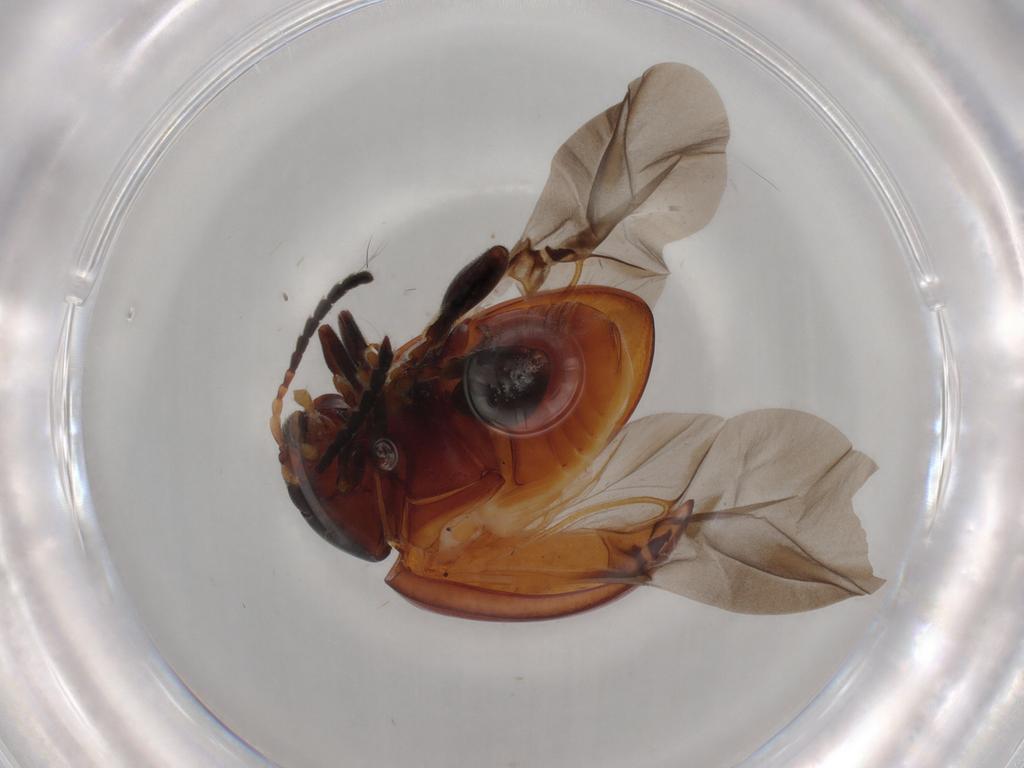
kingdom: Animalia
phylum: Arthropoda
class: Insecta
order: Coleoptera
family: Chrysomelidae
